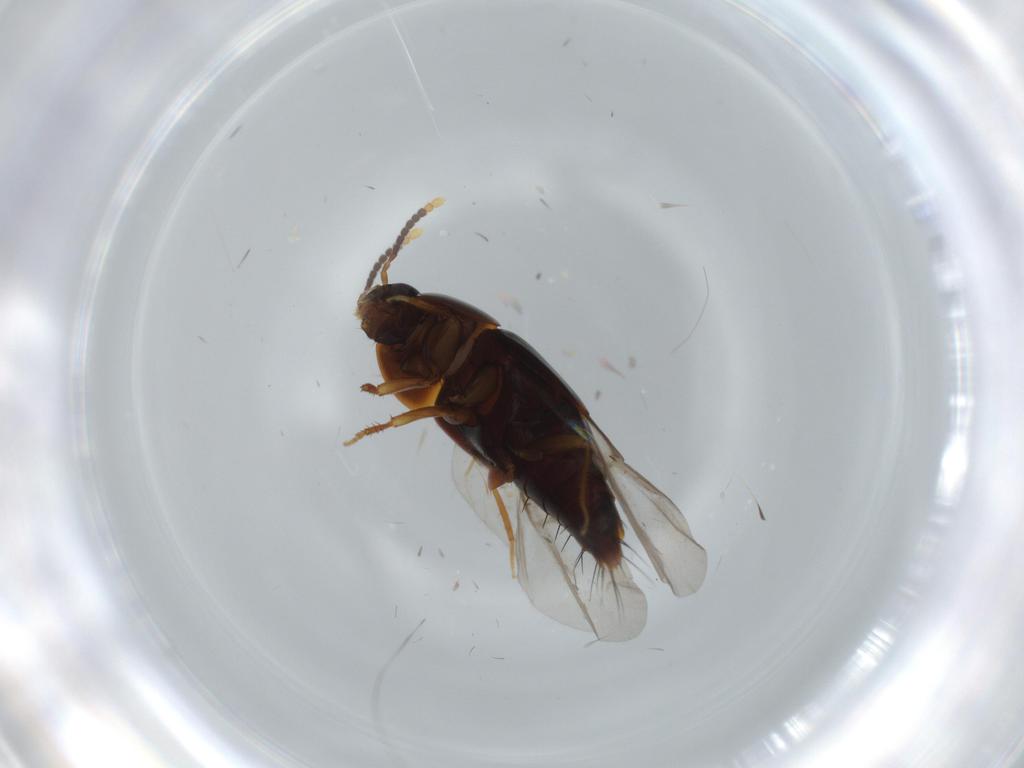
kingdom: Animalia
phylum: Arthropoda
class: Insecta
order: Coleoptera
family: Staphylinidae
